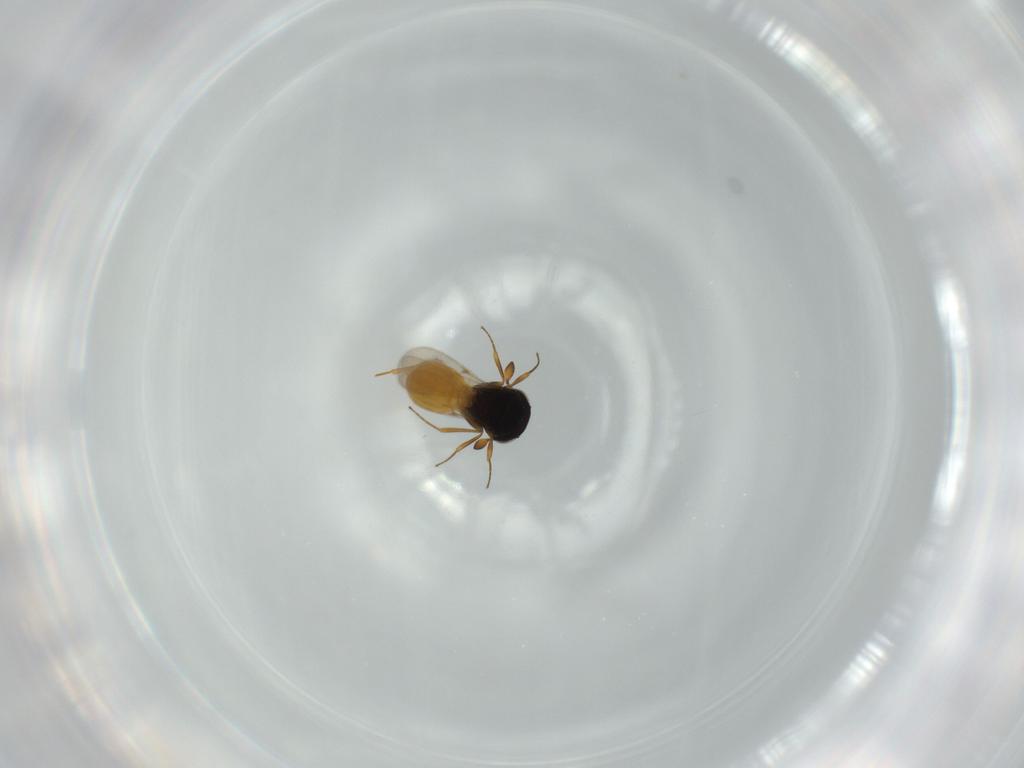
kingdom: Animalia
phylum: Arthropoda
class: Insecta
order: Hymenoptera
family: Scelionidae
